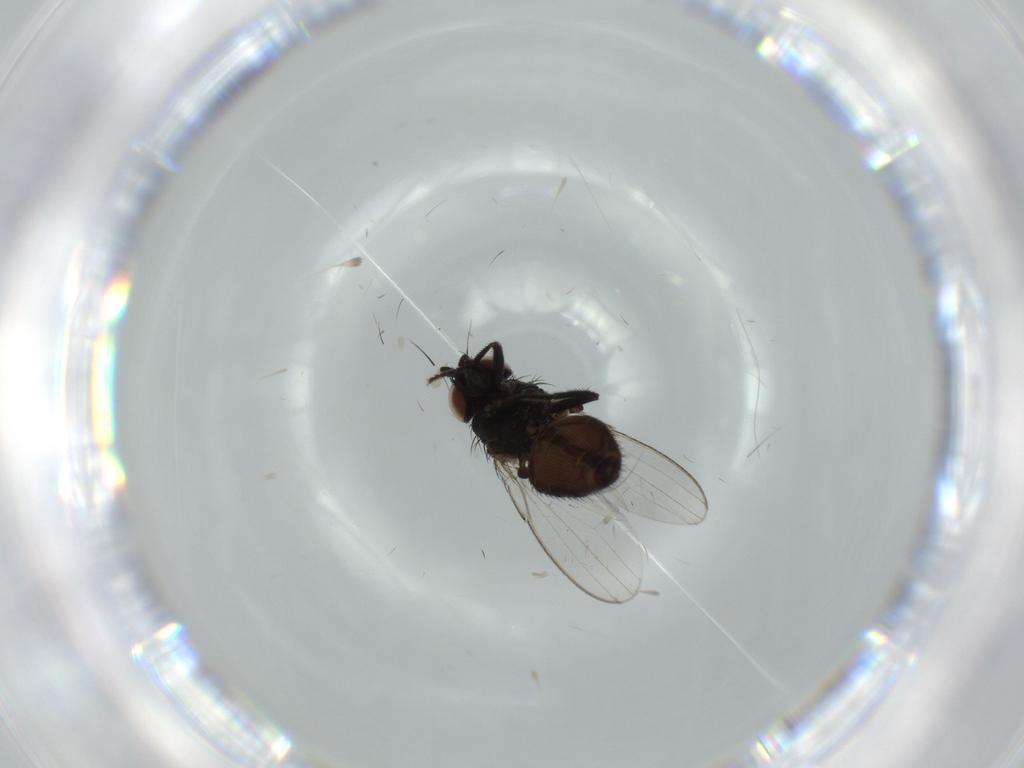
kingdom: Animalia
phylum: Arthropoda
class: Insecta
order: Diptera
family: Milichiidae
